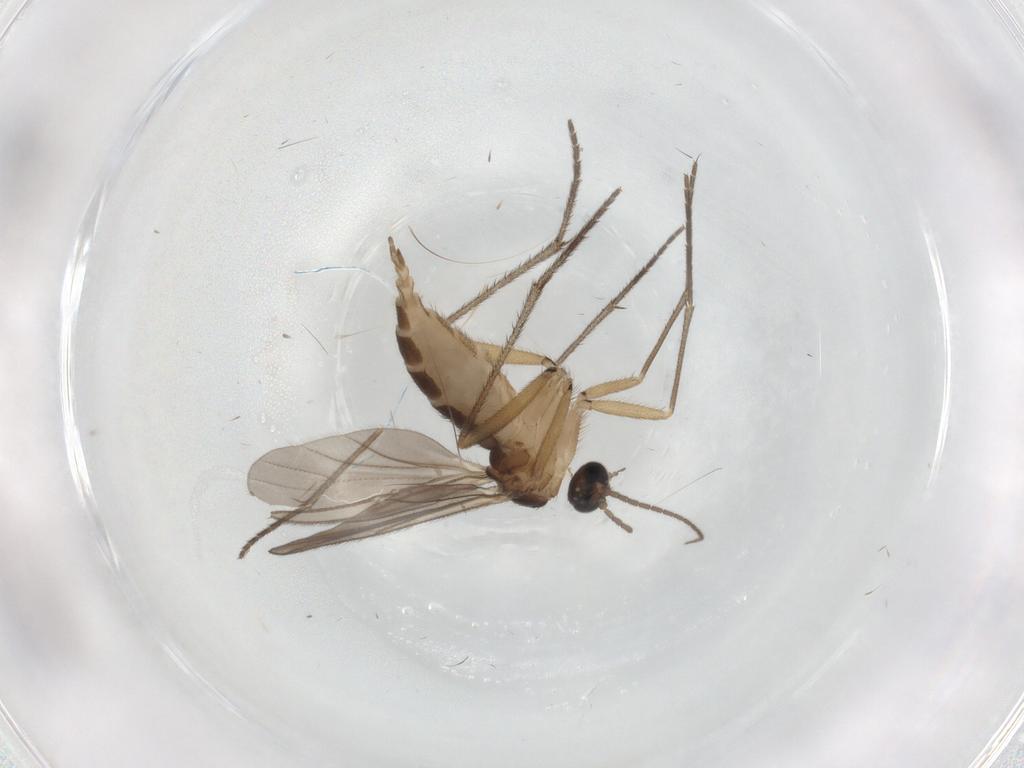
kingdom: Animalia
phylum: Arthropoda
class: Insecta
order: Diptera
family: Sciaridae
